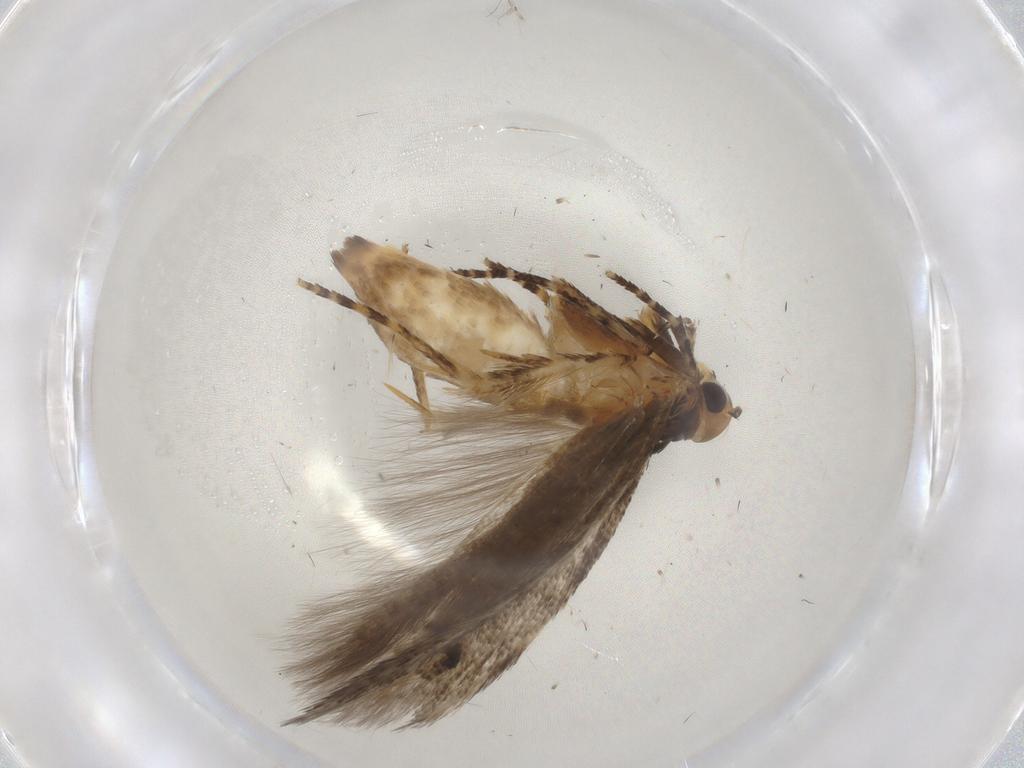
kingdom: Animalia
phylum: Arthropoda
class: Insecta
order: Lepidoptera
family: Gelechiidae
